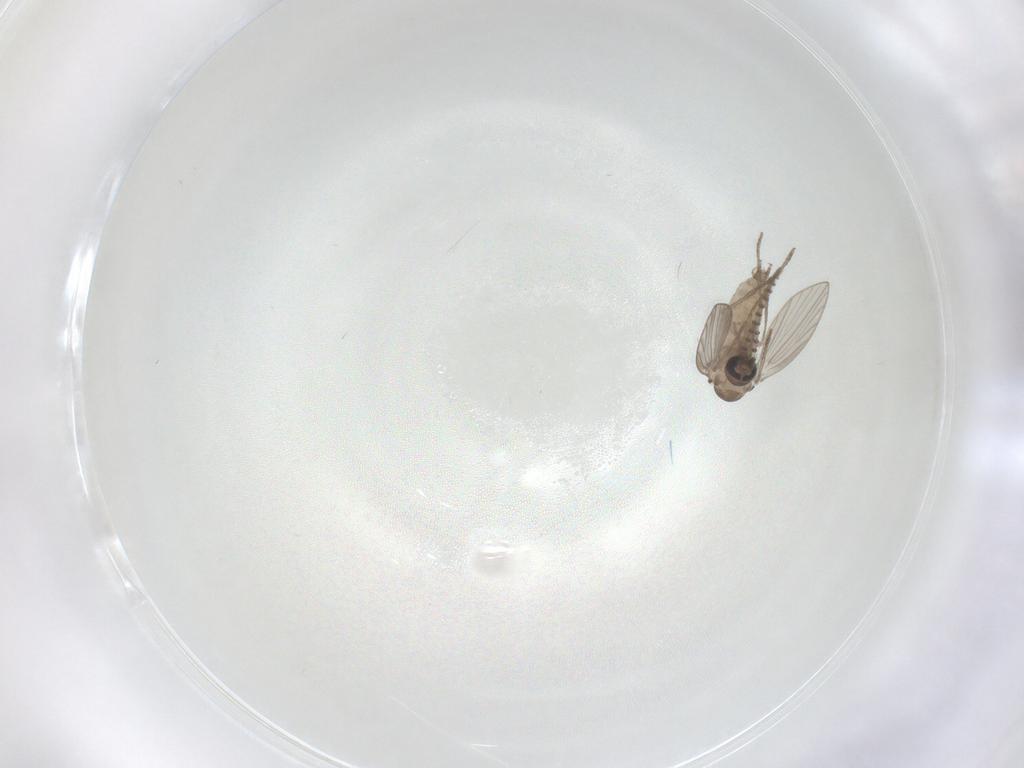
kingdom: Animalia
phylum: Arthropoda
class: Insecta
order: Diptera
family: Psychodidae
